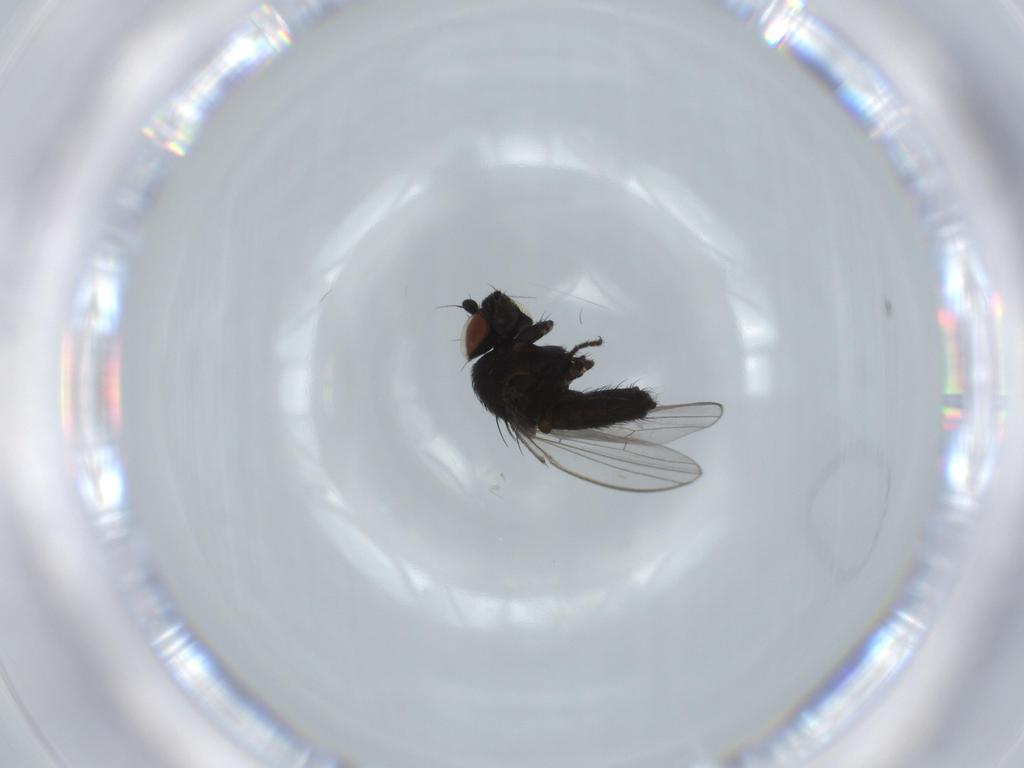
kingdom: Animalia
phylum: Arthropoda
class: Insecta
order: Diptera
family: Milichiidae
